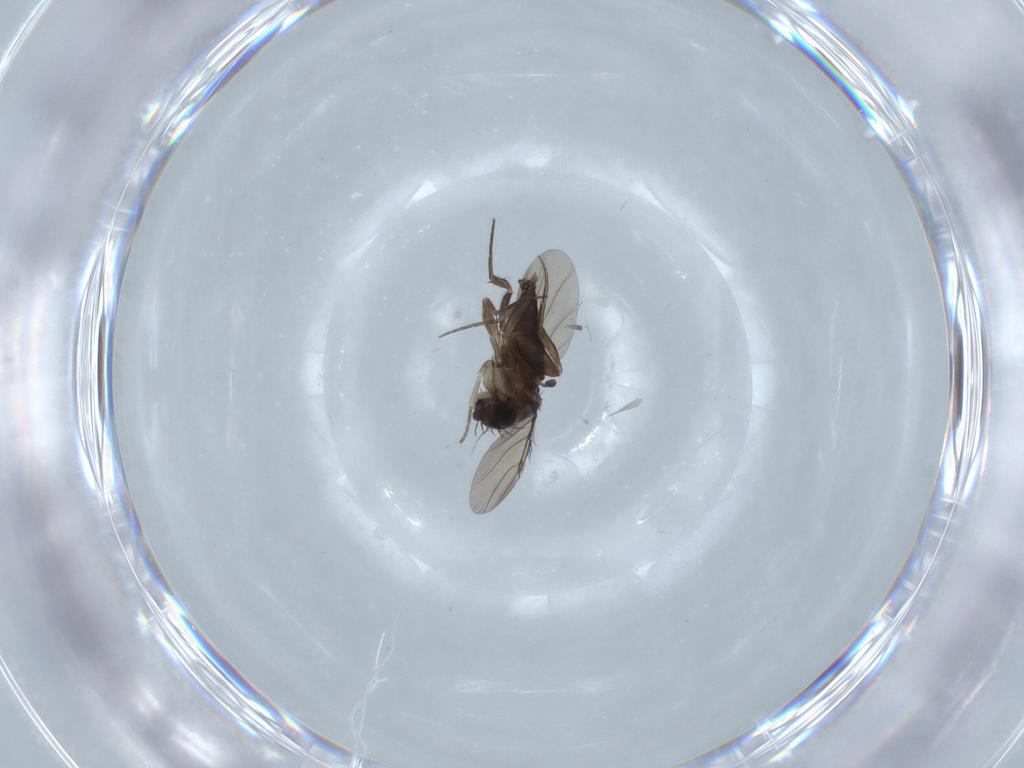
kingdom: Animalia
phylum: Arthropoda
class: Insecta
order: Diptera
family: Phoridae
